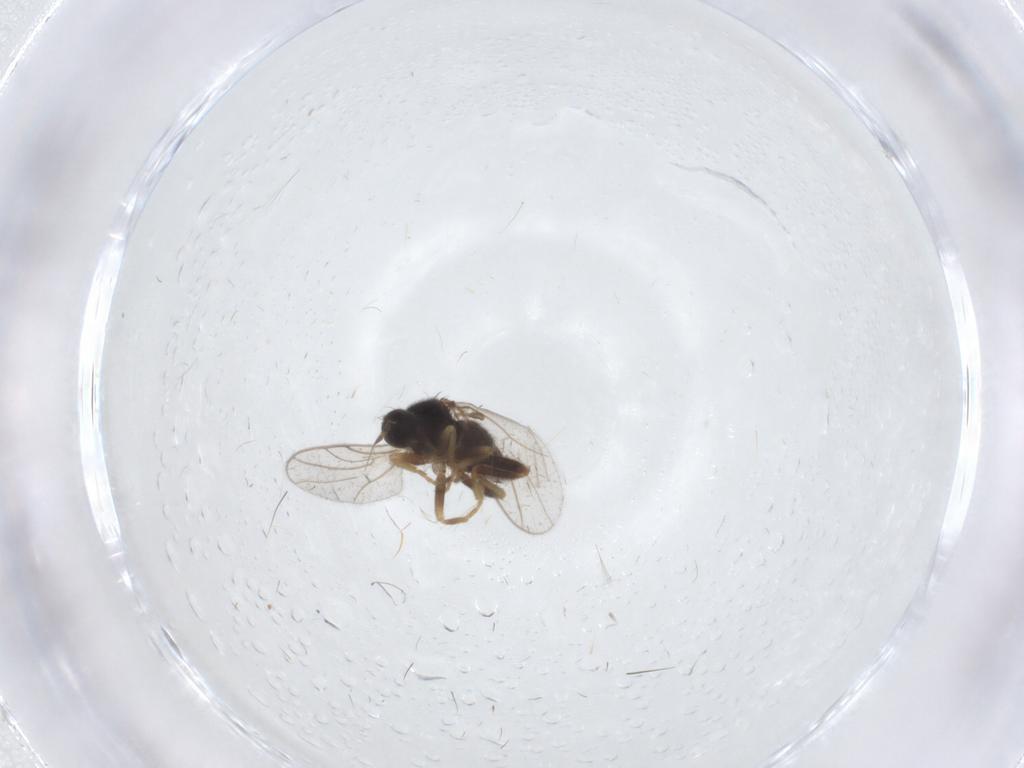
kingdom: Animalia
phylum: Arthropoda
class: Insecta
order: Diptera
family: Hybotidae
